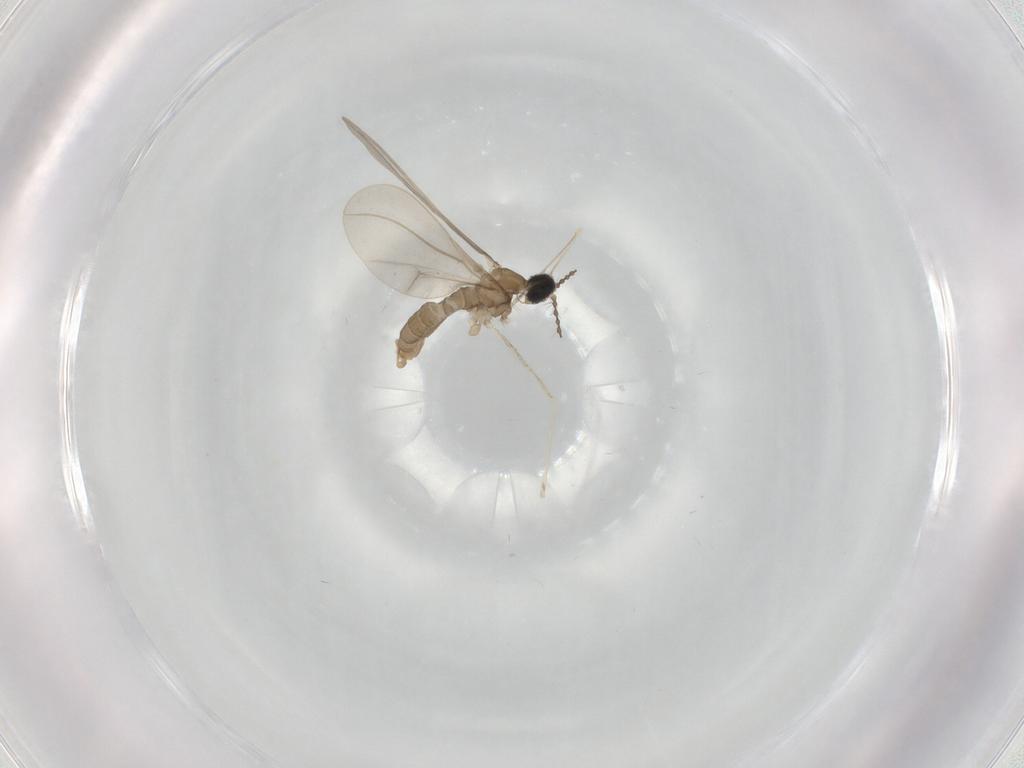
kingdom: Animalia
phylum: Arthropoda
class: Insecta
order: Diptera
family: Cecidomyiidae
